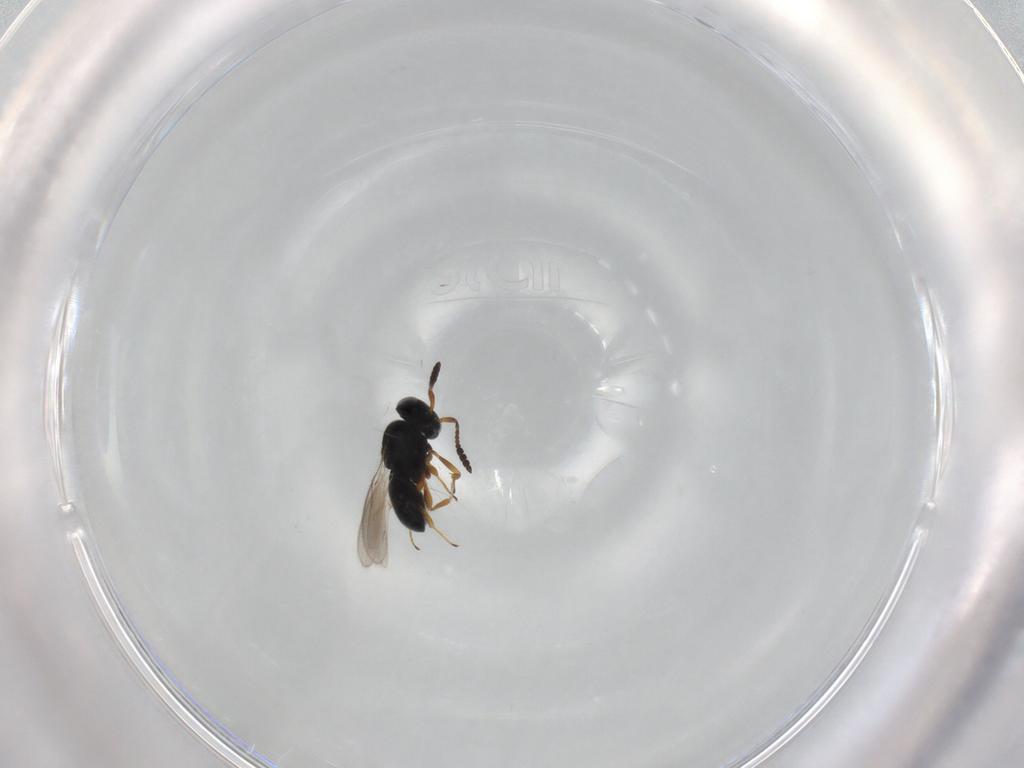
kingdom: Animalia
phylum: Arthropoda
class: Insecta
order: Hymenoptera
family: Scelionidae
